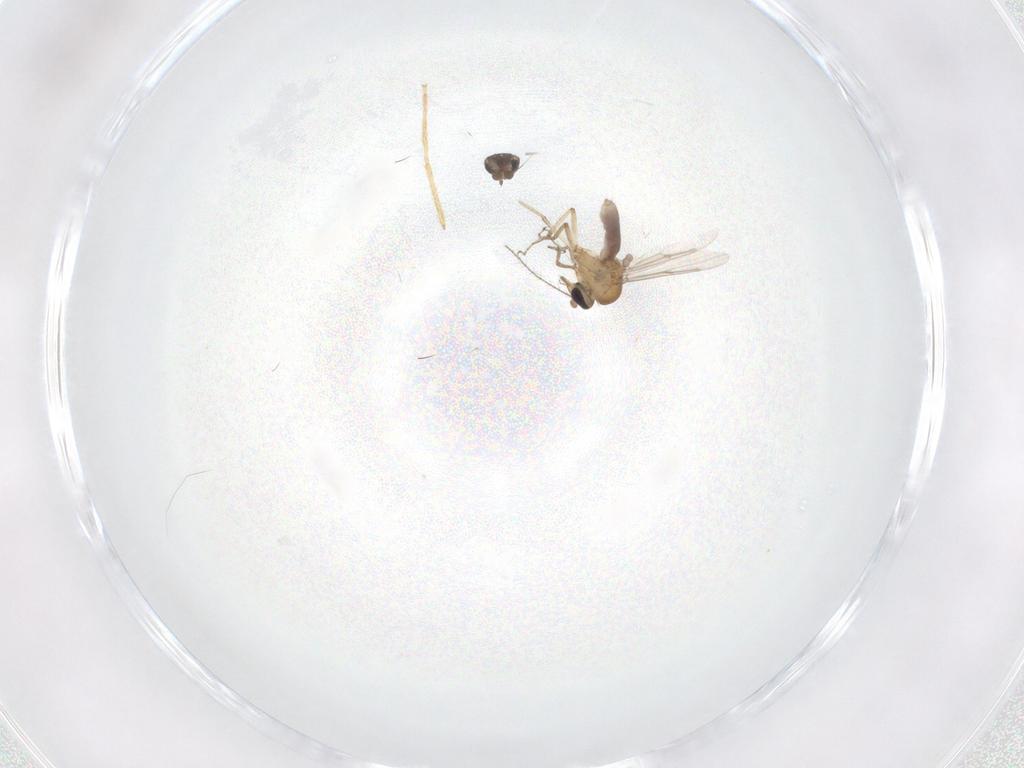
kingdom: Animalia
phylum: Arthropoda
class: Insecta
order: Diptera
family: Chironomidae
